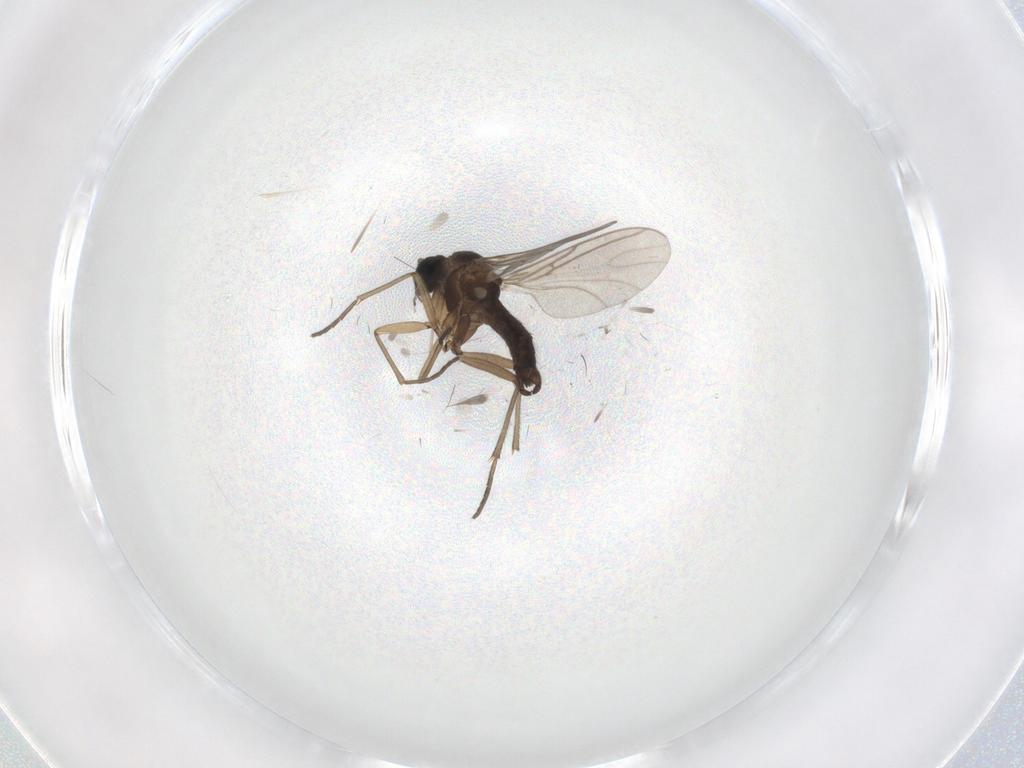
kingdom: Animalia
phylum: Arthropoda
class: Insecta
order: Diptera
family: Sciaridae
